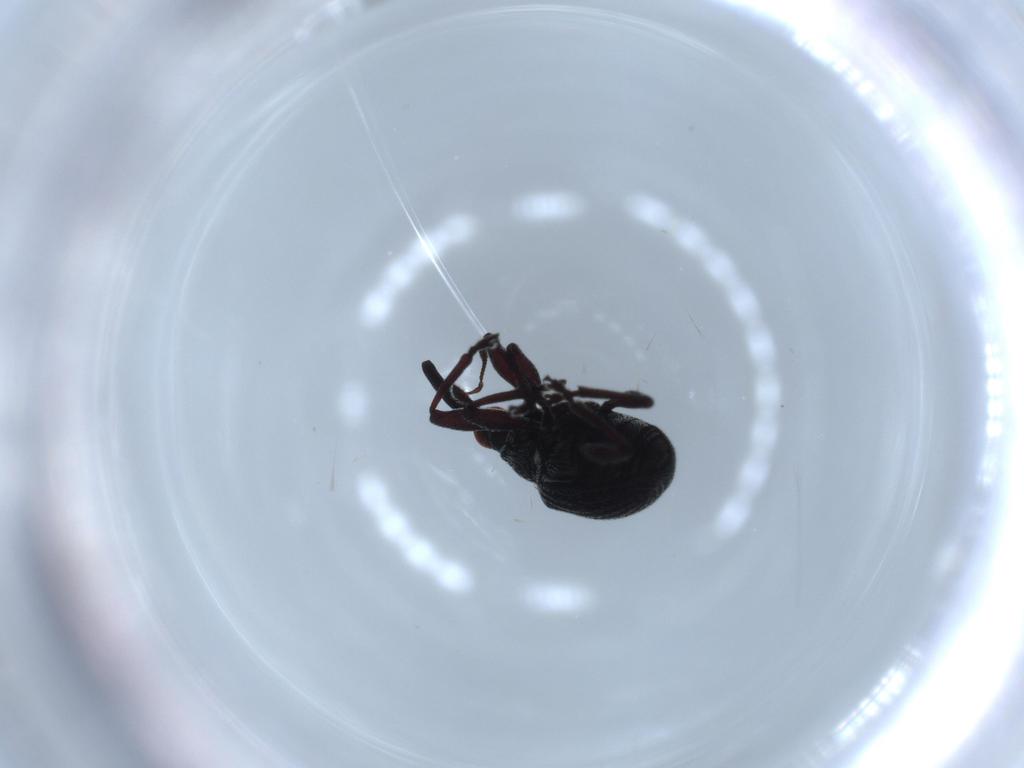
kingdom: Animalia
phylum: Arthropoda
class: Insecta
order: Coleoptera
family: Brentidae
